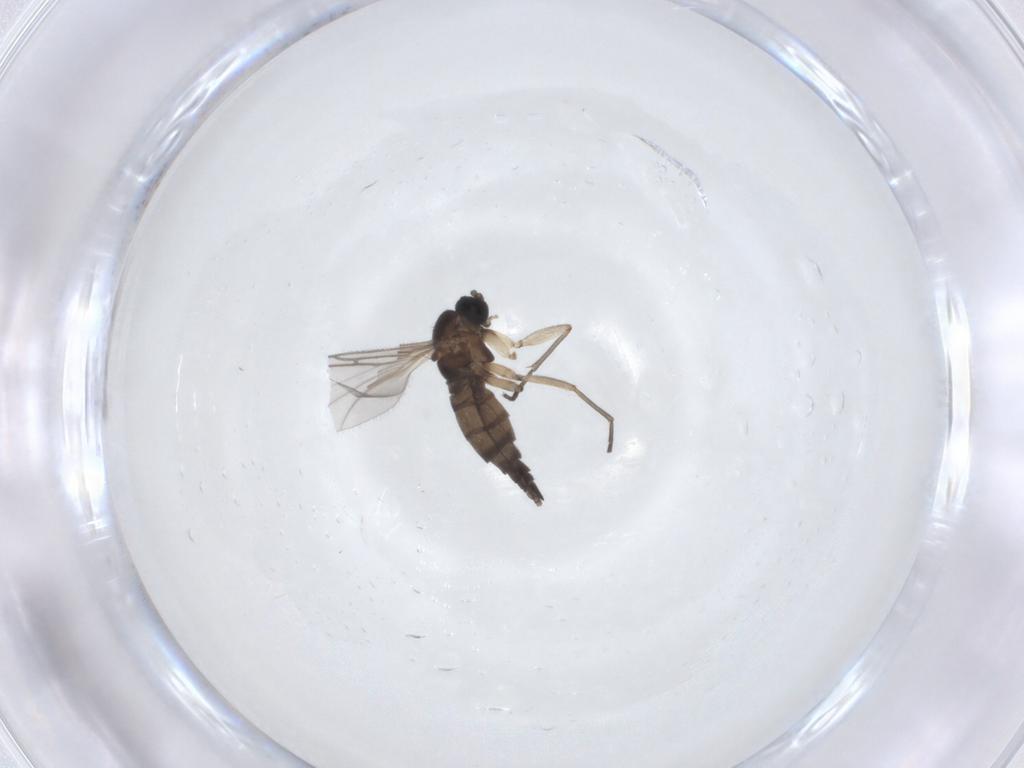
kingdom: Animalia
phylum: Arthropoda
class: Insecta
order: Diptera
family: Sciaridae
